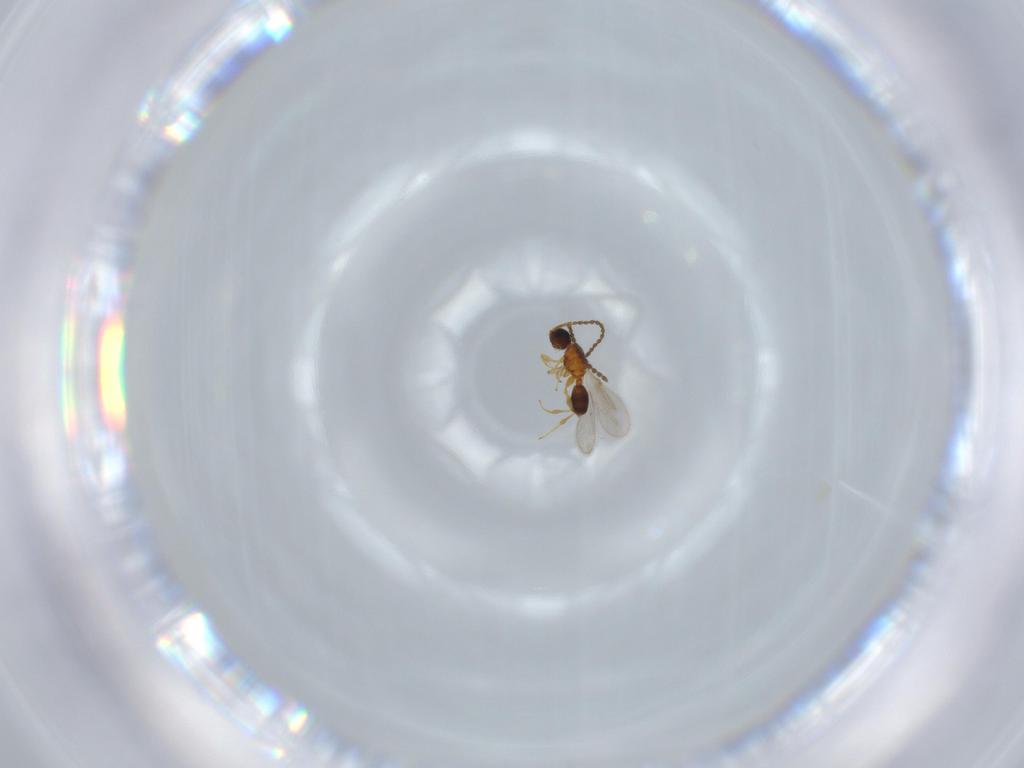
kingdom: Animalia
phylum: Arthropoda
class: Insecta
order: Hymenoptera
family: Diapriidae
